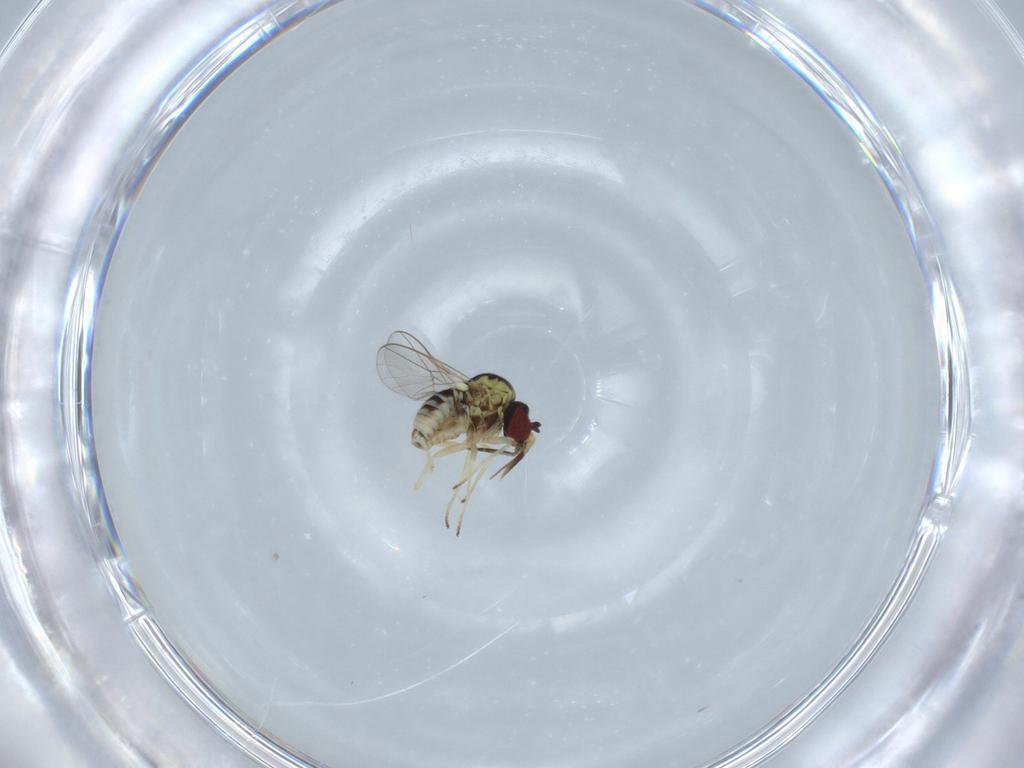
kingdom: Animalia
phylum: Arthropoda
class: Insecta
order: Diptera
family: Bombyliidae
